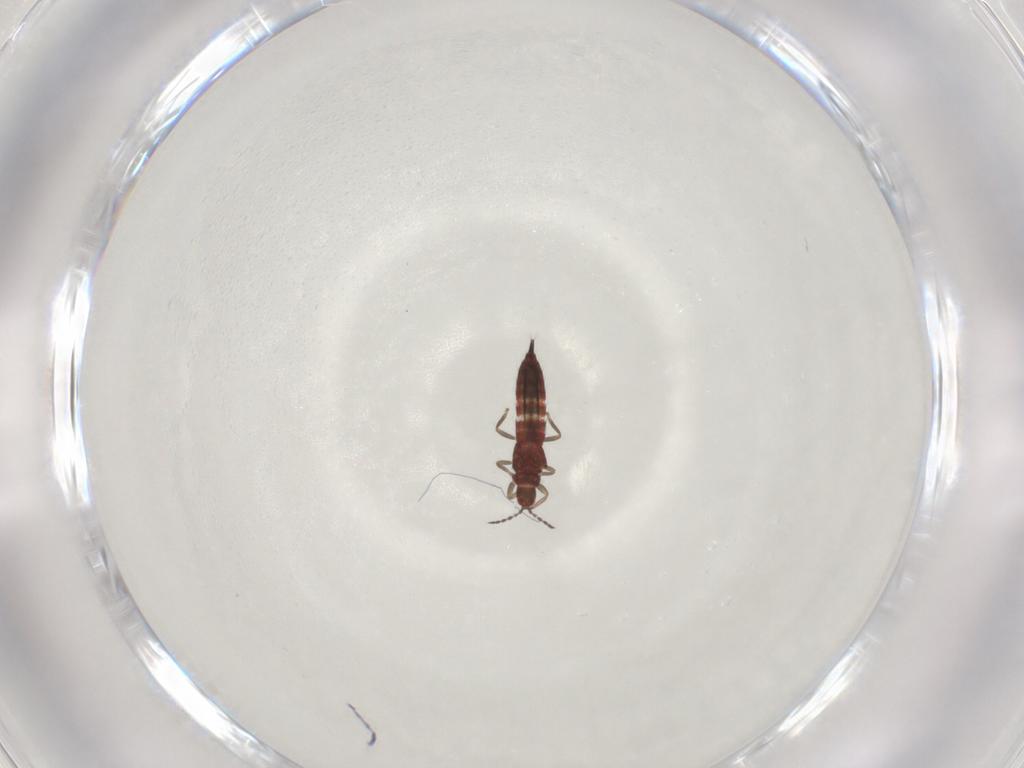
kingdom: Animalia
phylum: Arthropoda
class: Insecta
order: Thysanoptera
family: Phlaeothripidae
